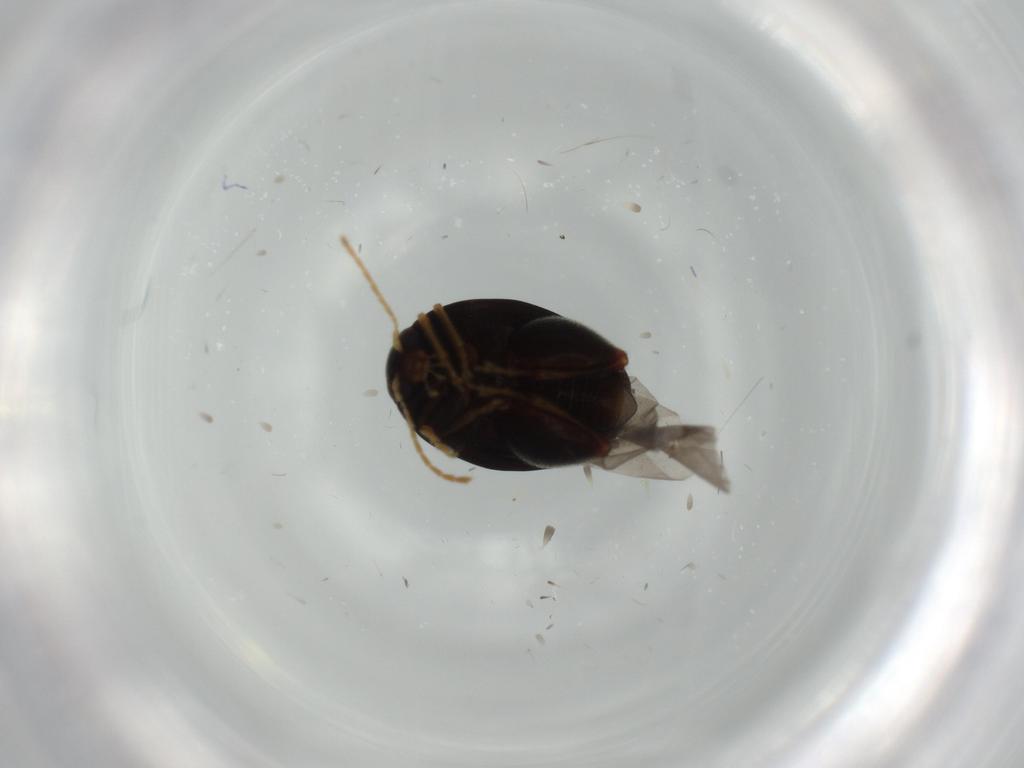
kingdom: Animalia
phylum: Arthropoda
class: Insecta
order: Coleoptera
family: Chrysomelidae
